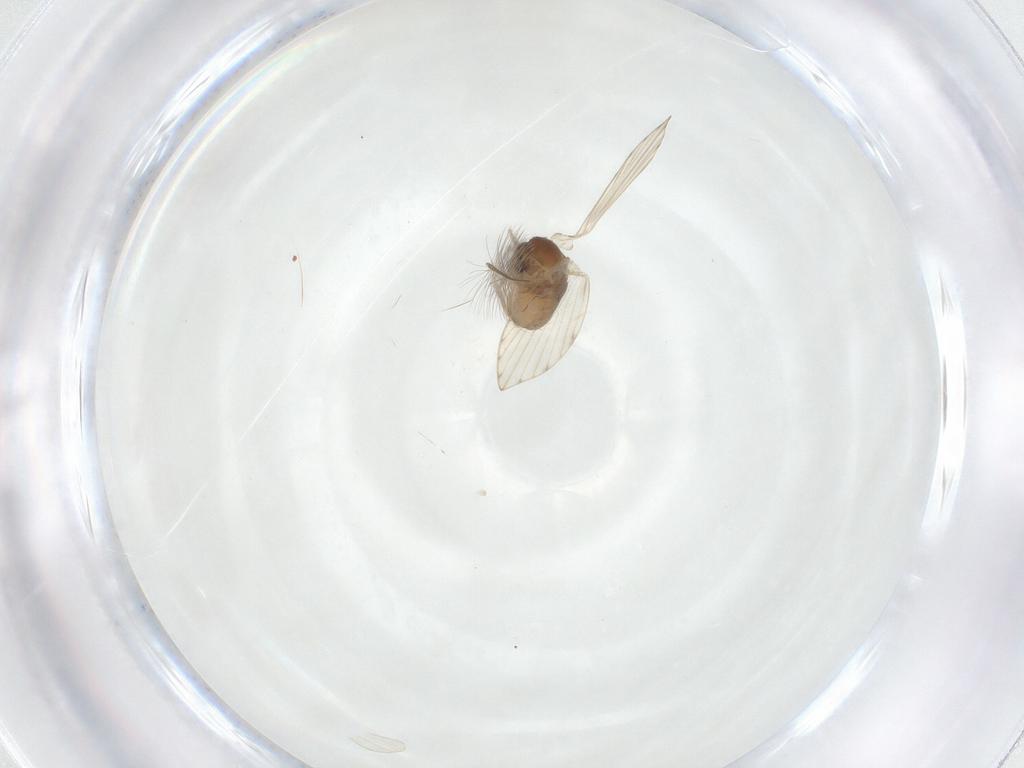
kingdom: Animalia
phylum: Arthropoda
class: Insecta
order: Diptera
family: Psychodidae
